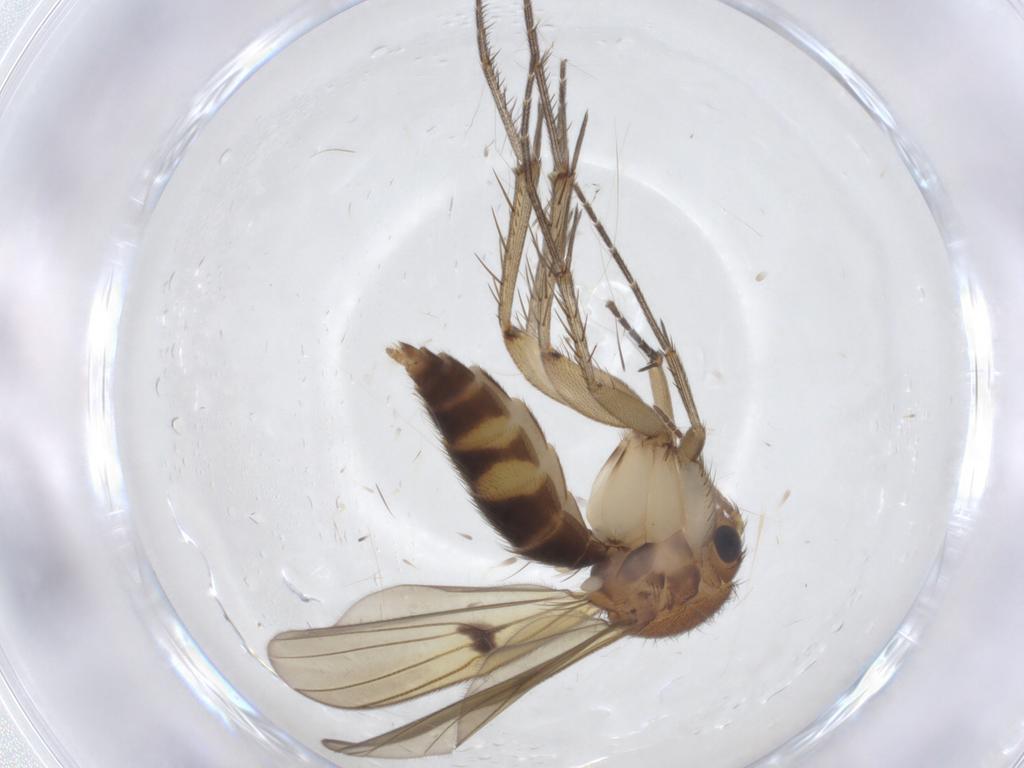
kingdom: Animalia
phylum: Arthropoda
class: Insecta
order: Diptera
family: Mycetophilidae
